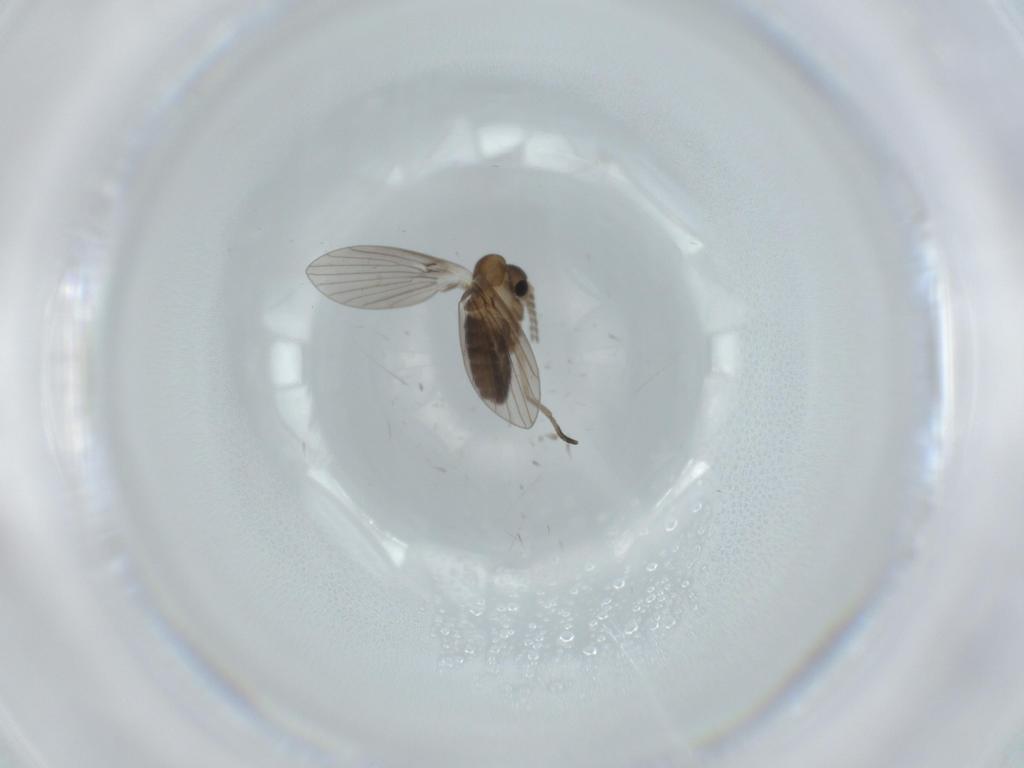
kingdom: Animalia
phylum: Arthropoda
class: Insecta
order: Diptera
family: Psychodidae
